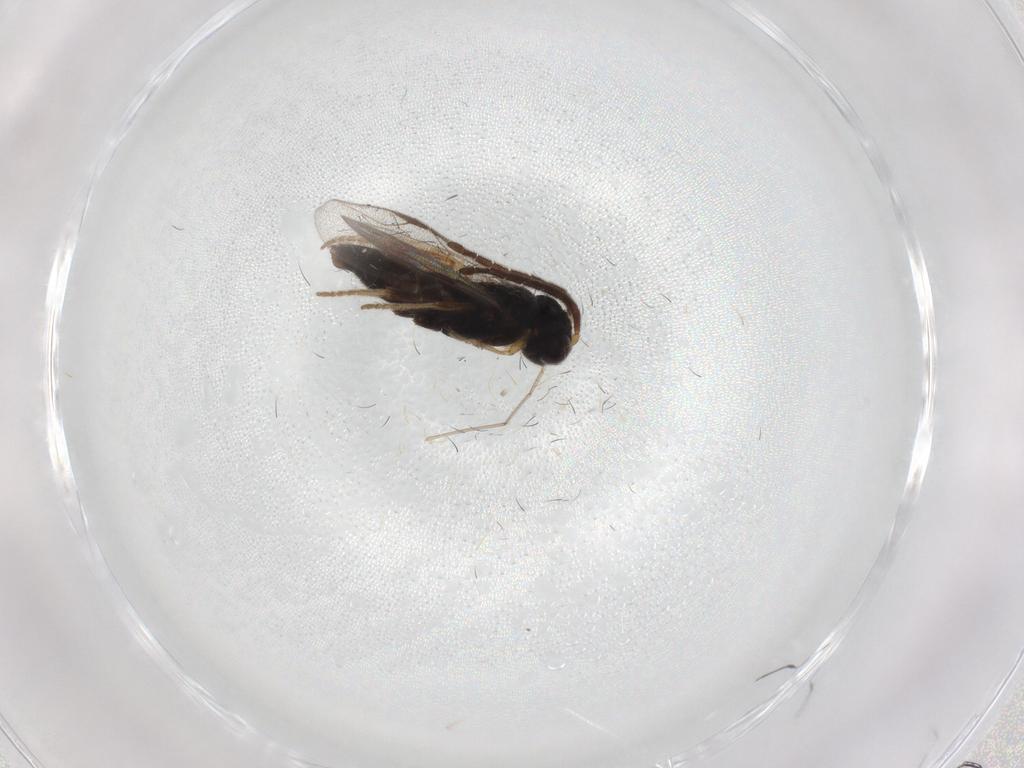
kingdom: Animalia
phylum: Arthropoda
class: Insecta
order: Hymenoptera
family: Dryinidae
